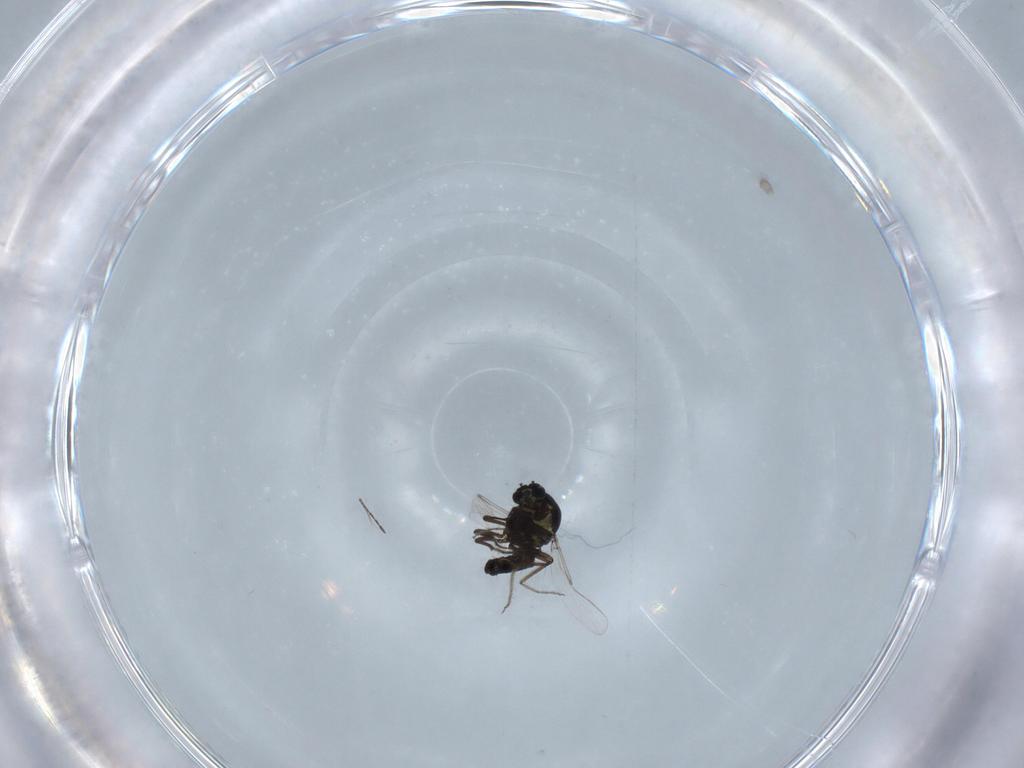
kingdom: Animalia
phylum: Arthropoda
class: Insecta
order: Diptera
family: Ceratopogonidae
